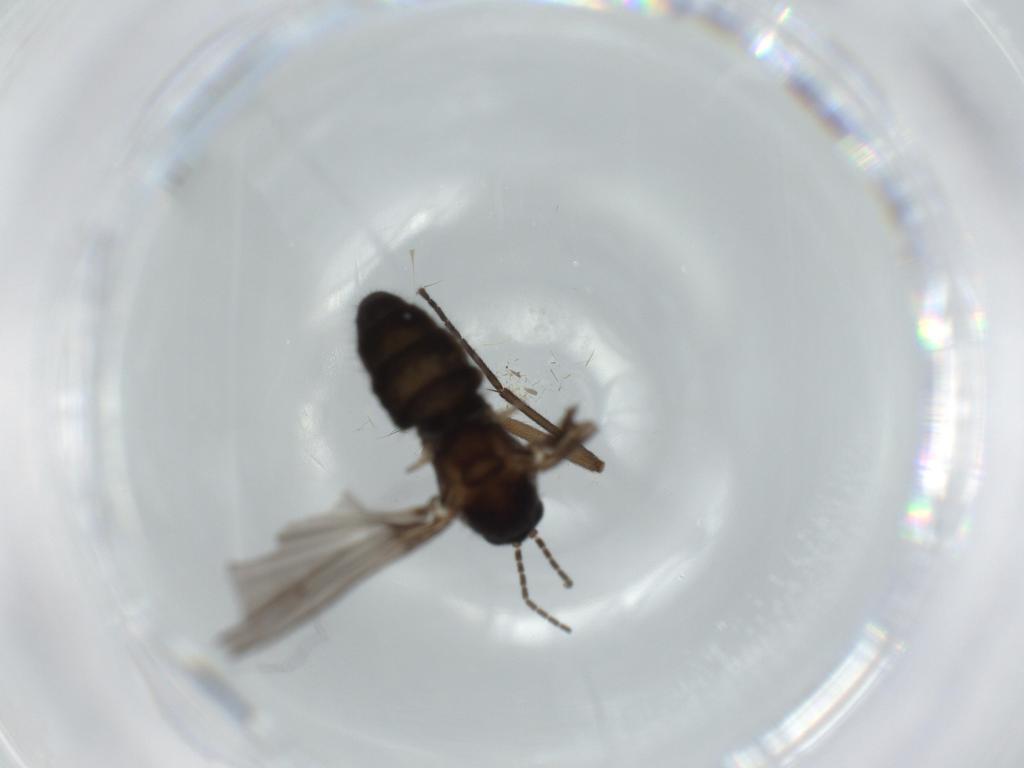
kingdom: Animalia
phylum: Arthropoda
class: Insecta
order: Diptera
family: Sciaridae
